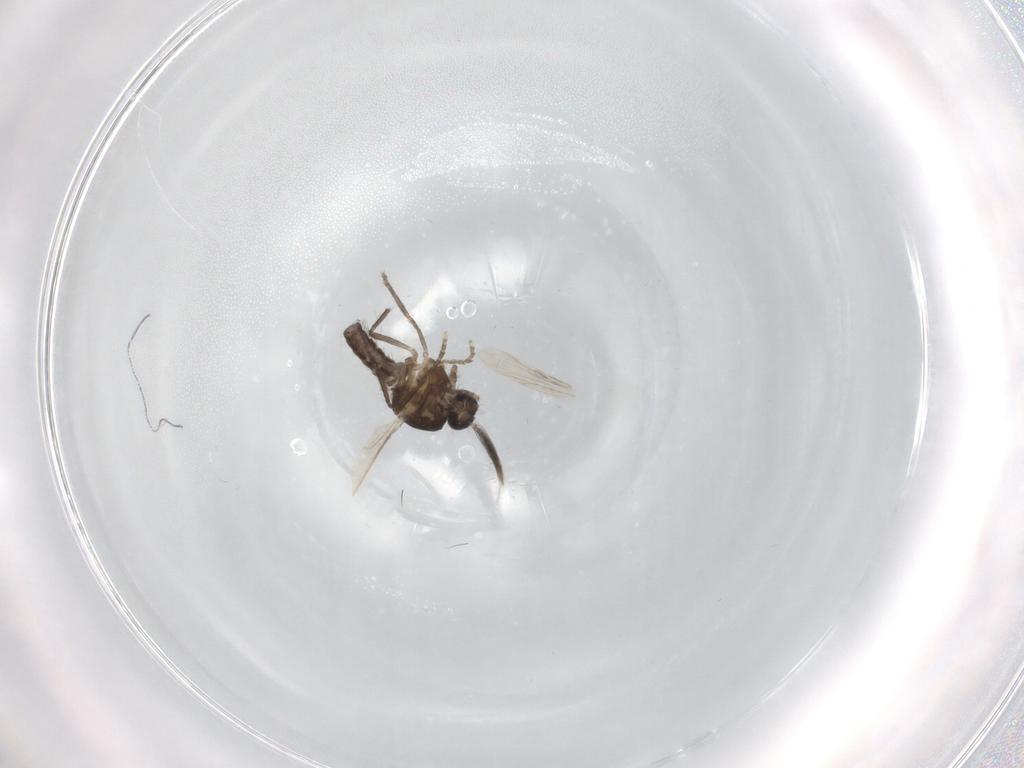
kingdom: Animalia
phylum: Arthropoda
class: Insecta
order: Diptera
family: Ceratopogonidae
